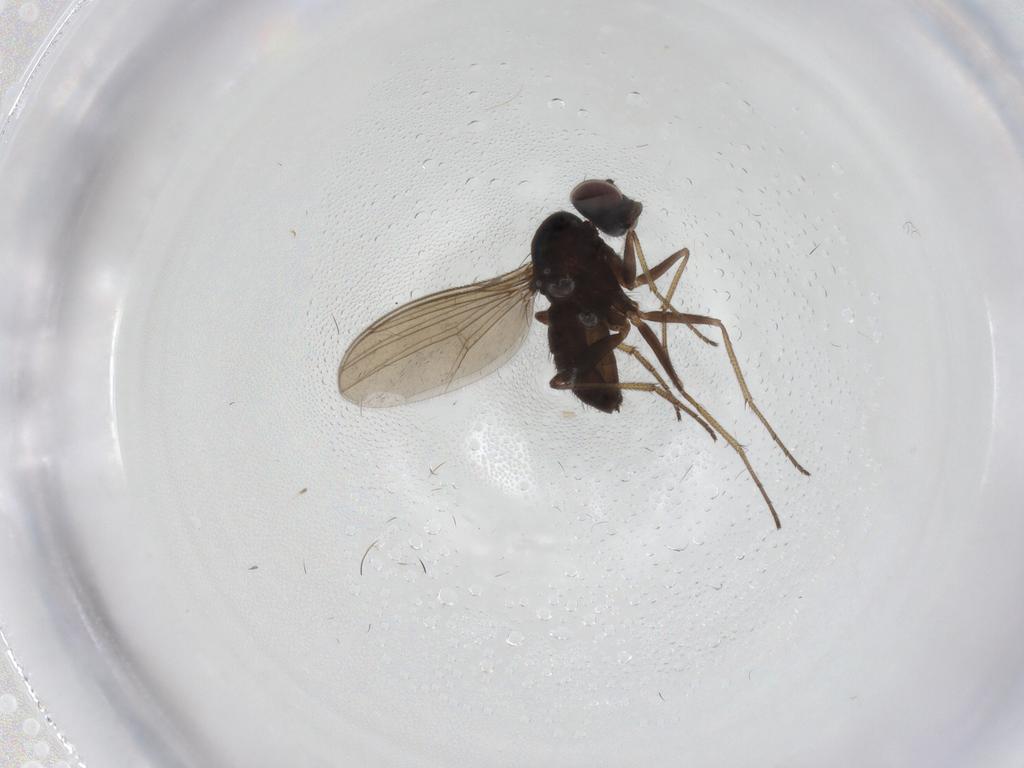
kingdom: Animalia
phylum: Arthropoda
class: Insecta
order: Diptera
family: Dolichopodidae
